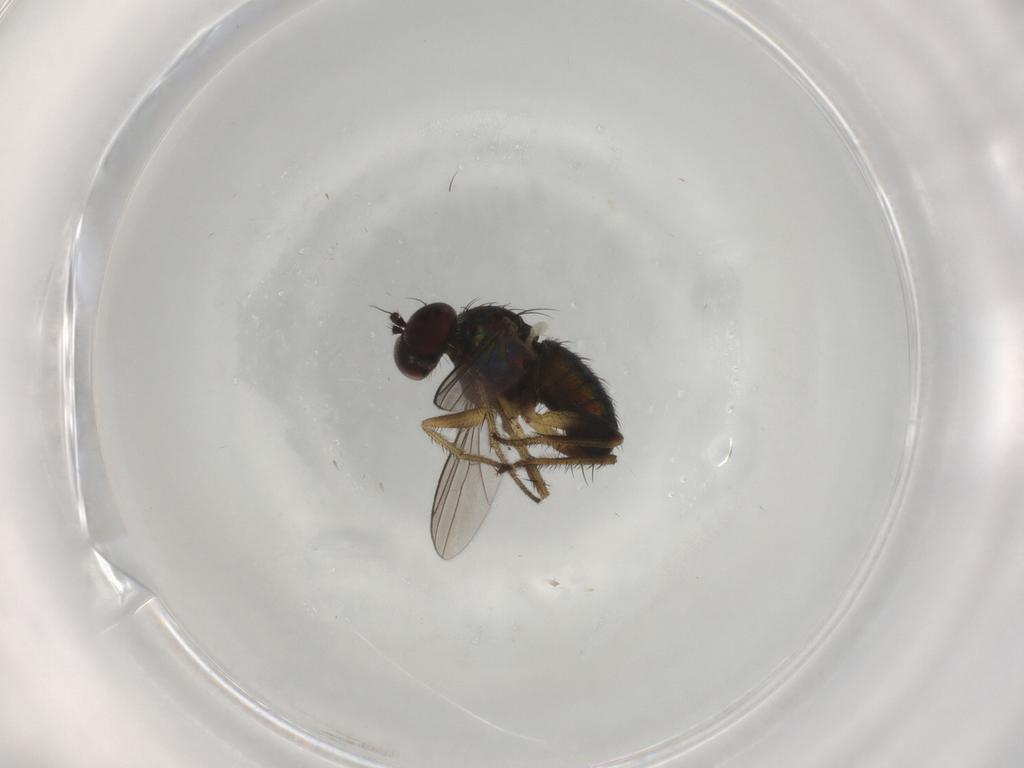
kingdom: Animalia
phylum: Arthropoda
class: Insecta
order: Diptera
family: Dolichopodidae
